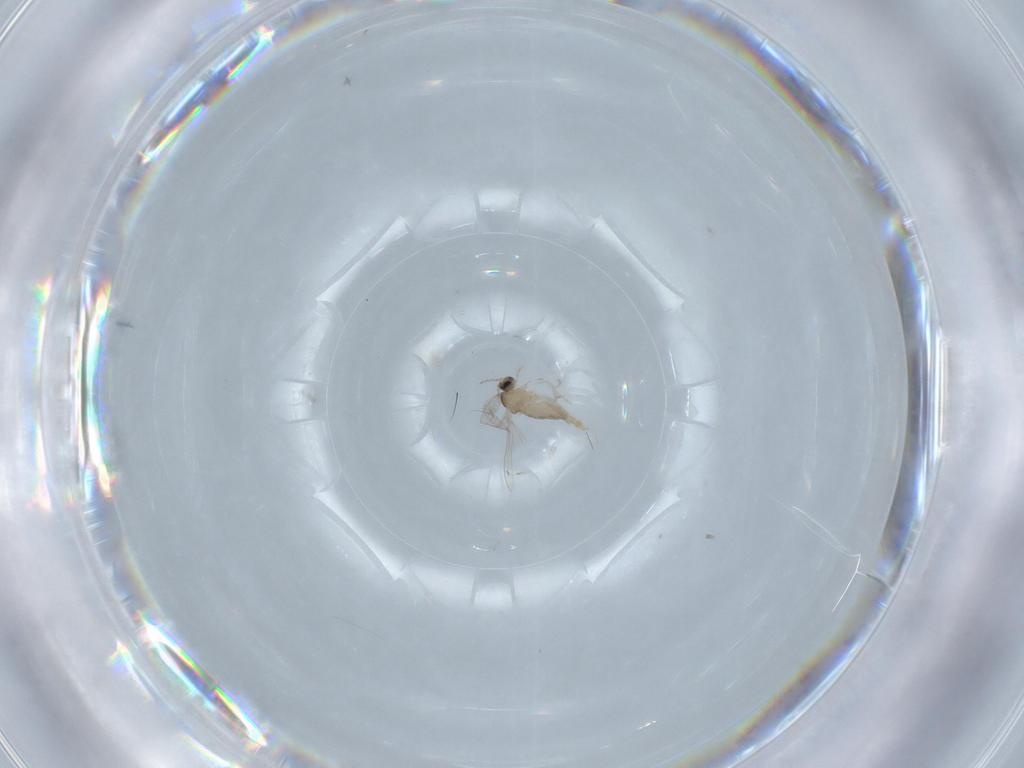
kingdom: Animalia
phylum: Arthropoda
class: Insecta
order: Diptera
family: Cecidomyiidae
